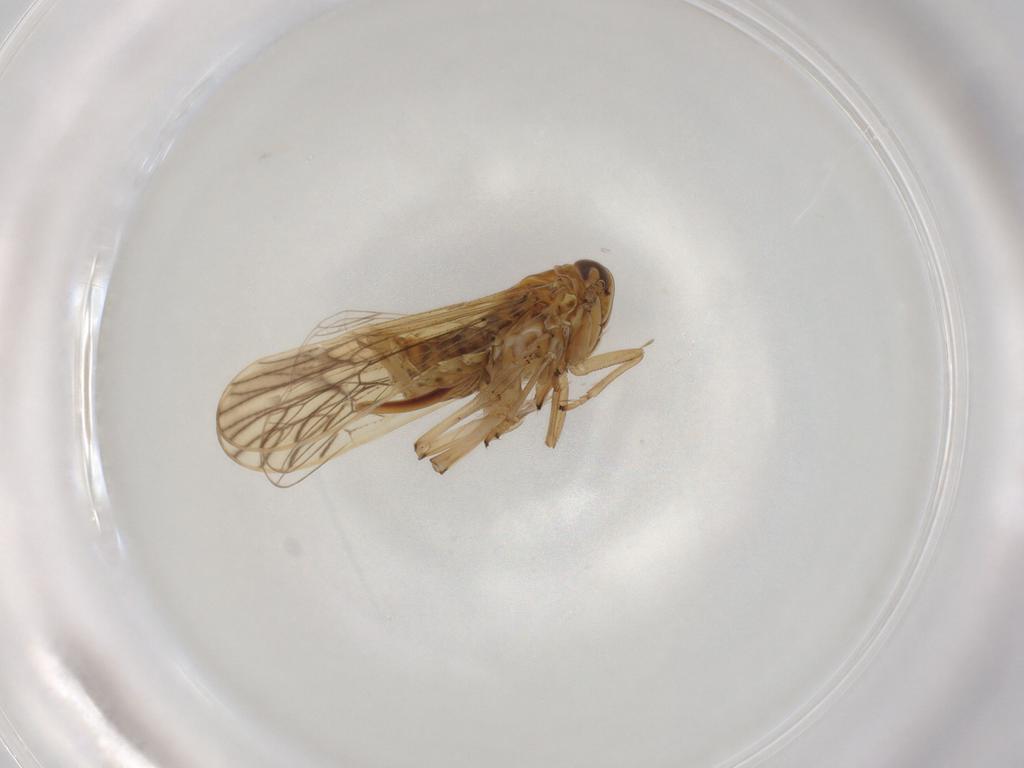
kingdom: Animalia
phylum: Arthropoda
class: Insecta
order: Hemiptera
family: Delphacidae
